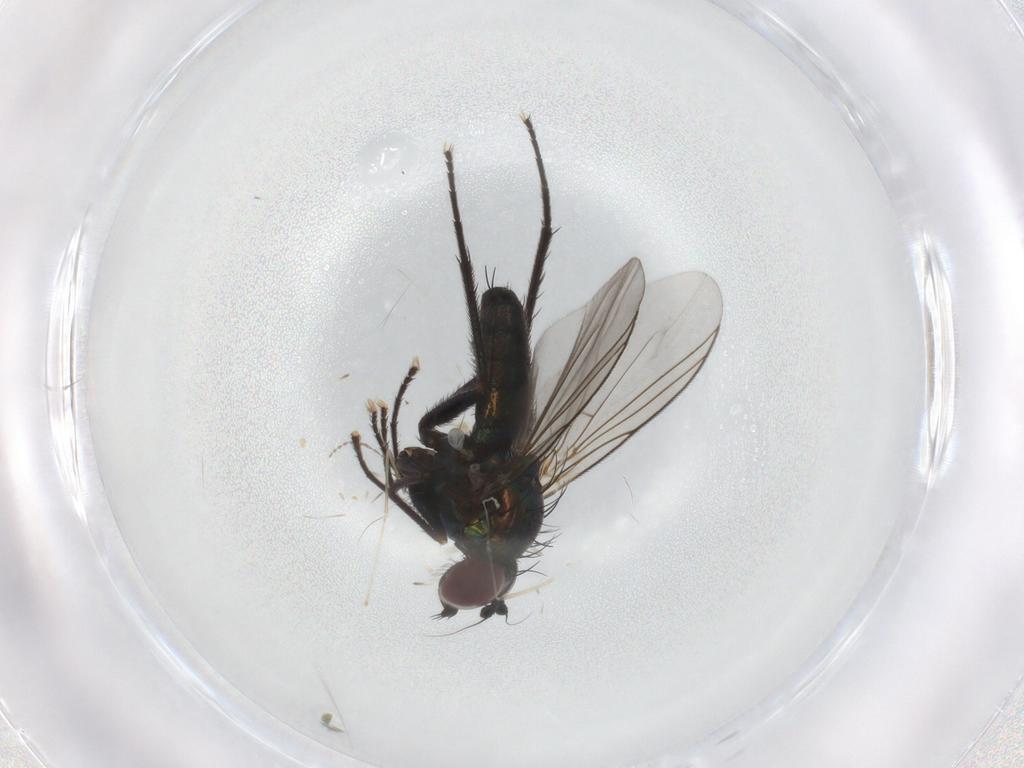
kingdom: Animalia
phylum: Arthropoda
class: Insecta
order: Diptera
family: Dolichopodidae
